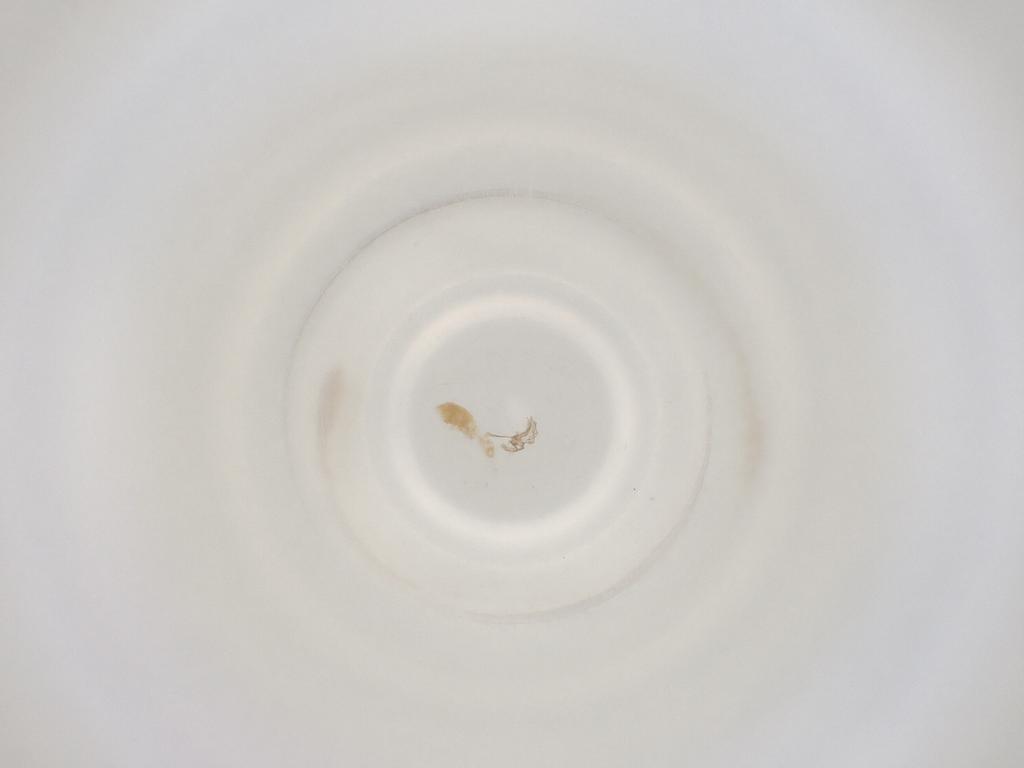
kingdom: Animalia
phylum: Arthropoda
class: Insecta
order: Diptera
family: Cecidomyiidae
